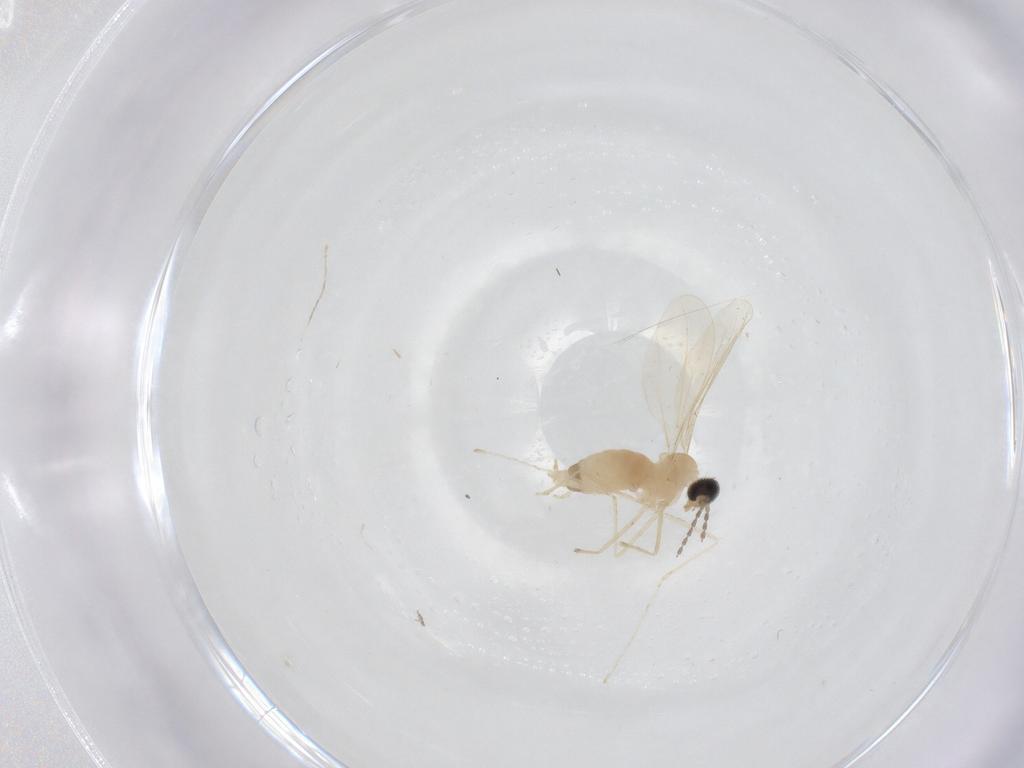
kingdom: Animalia
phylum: Arthropoda
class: Insecta
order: Diptera
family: Cecidomyiidae
